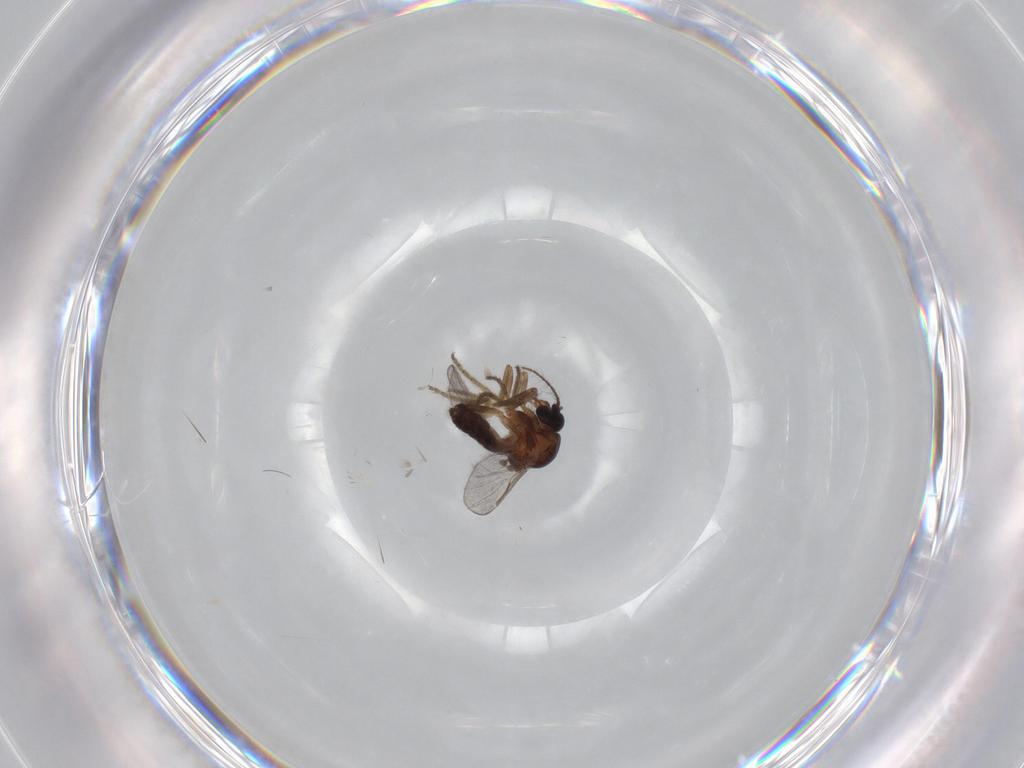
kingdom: Animalia
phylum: Arthropoda
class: Insecta
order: Diptera
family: Ceratopogonidae
